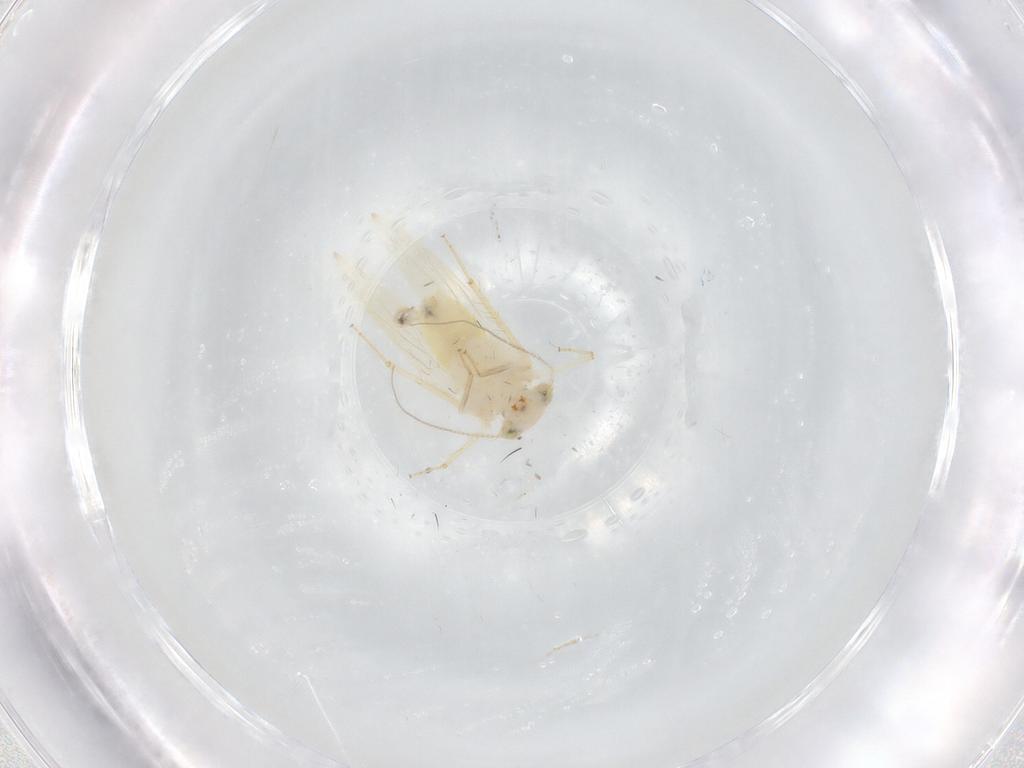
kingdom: Animalia
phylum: Arthropoda
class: Insecta
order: Psocodea
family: Lepidopsocidae
